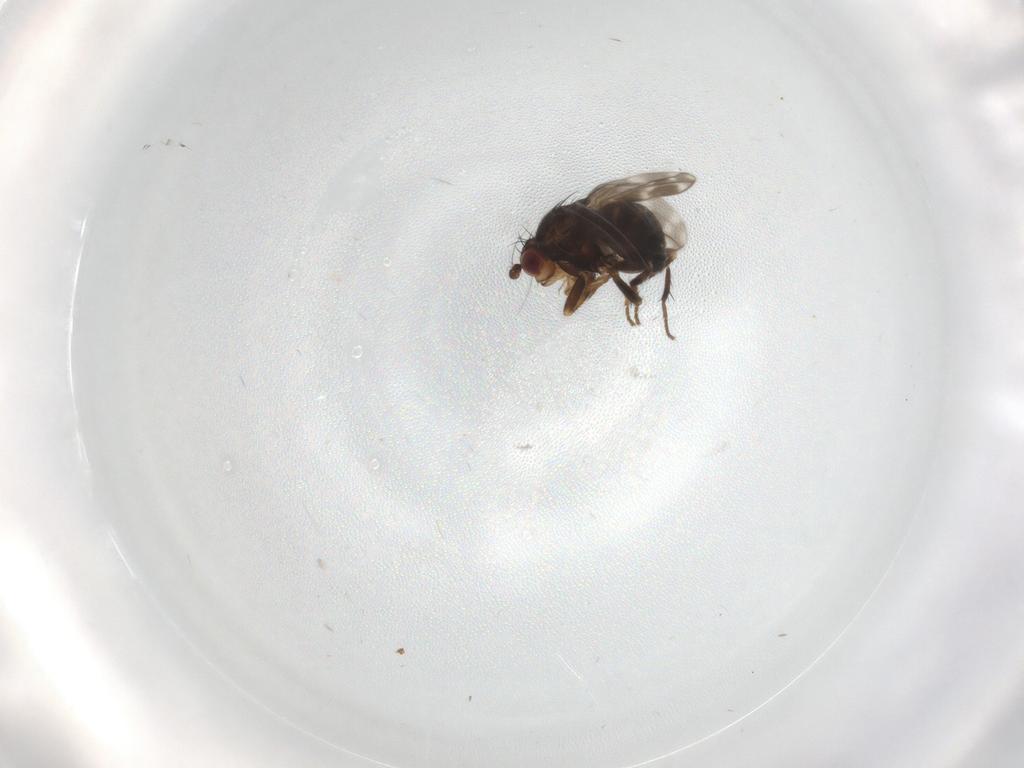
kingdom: Animalia
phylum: Arthropoda
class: Insecta
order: Diptera
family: Sphaeroceridae
